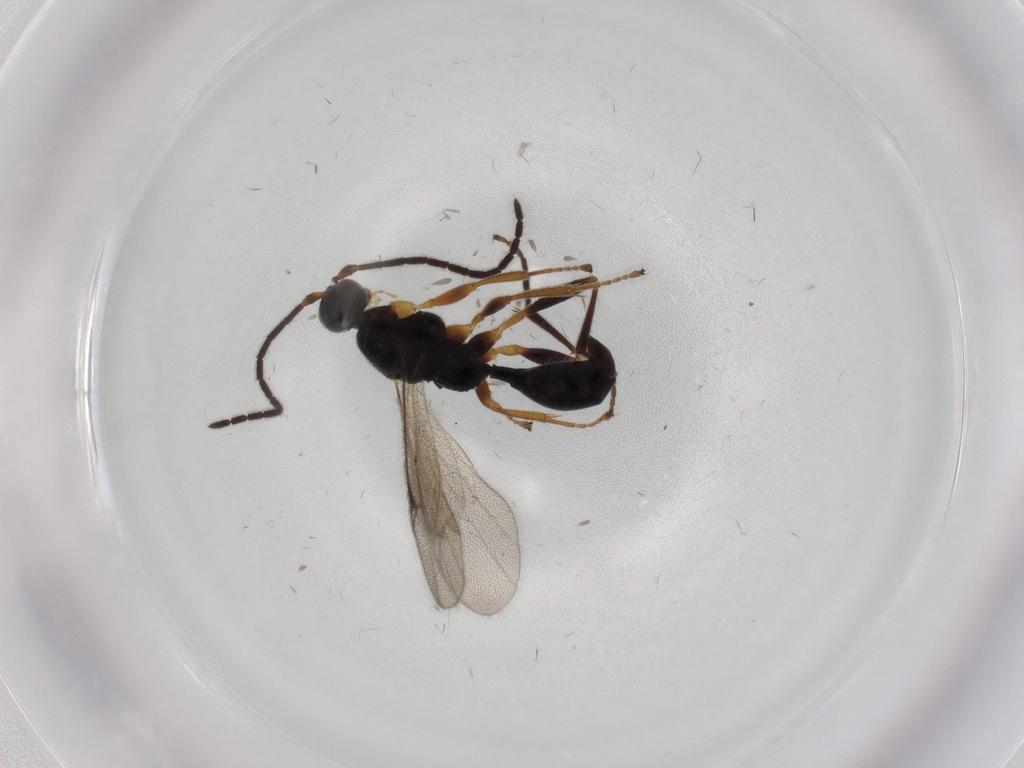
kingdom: Animalia
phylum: Arthropoda
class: Insecta
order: Hymenoptera
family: Proctotrupidae
